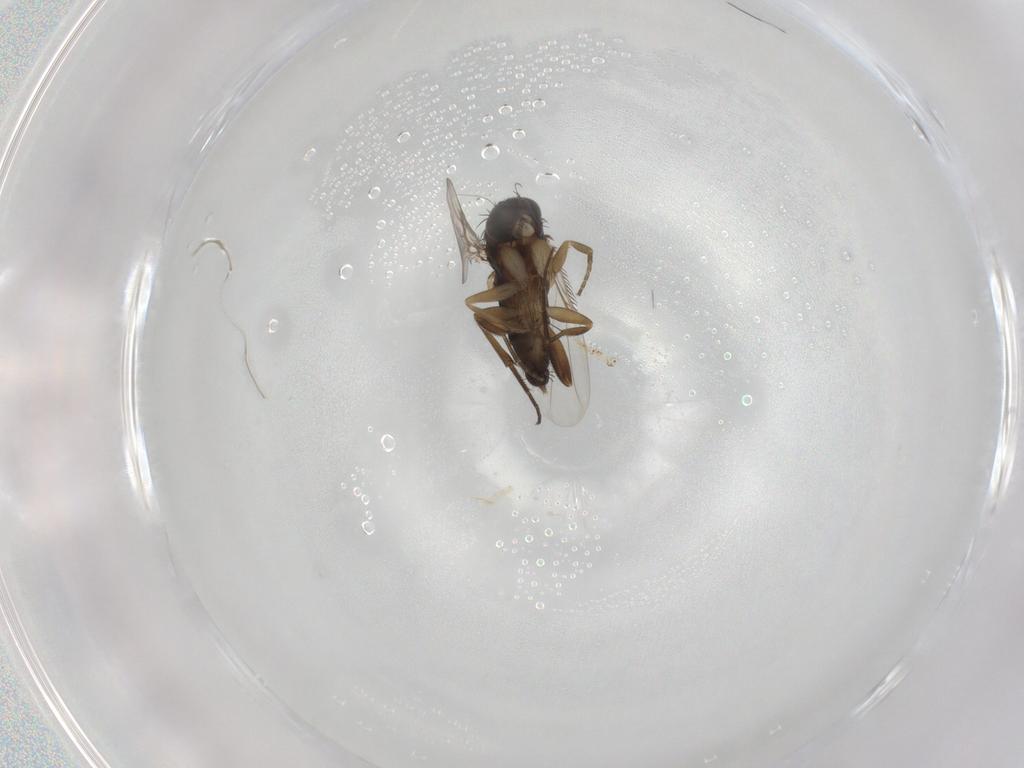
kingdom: Animalia
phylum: Arthropoda
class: Insecta
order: Diptera
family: Phoridae
